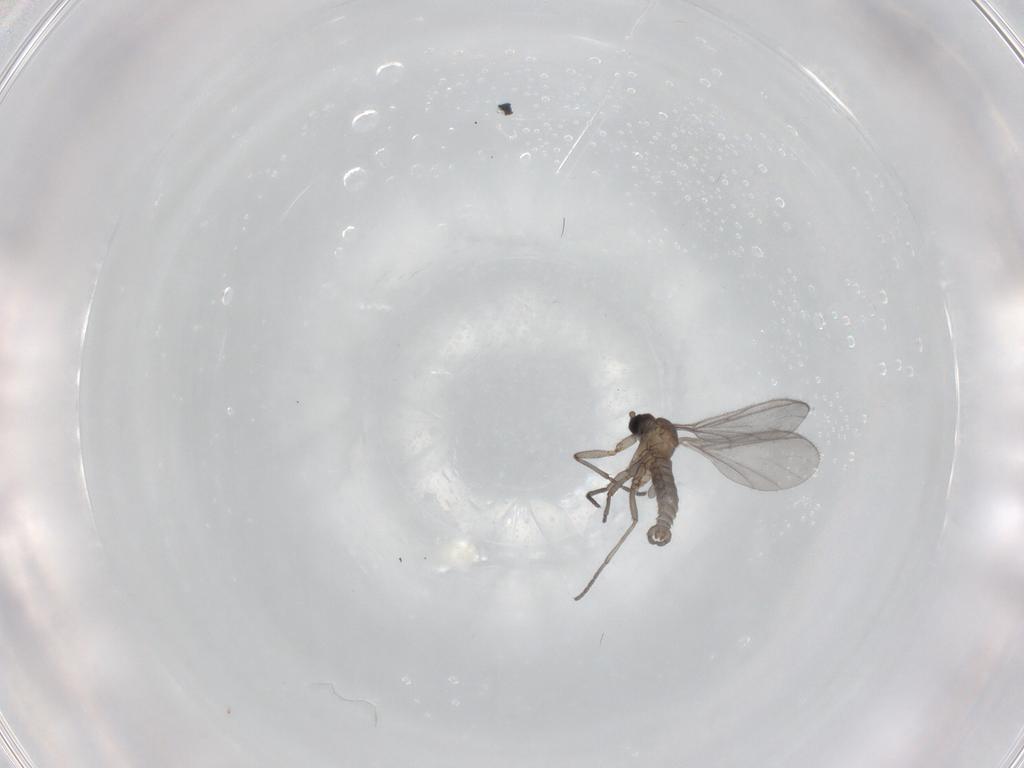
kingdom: Animalia
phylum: Arthropoda
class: Insecta
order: Diptera
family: Sciaridae
